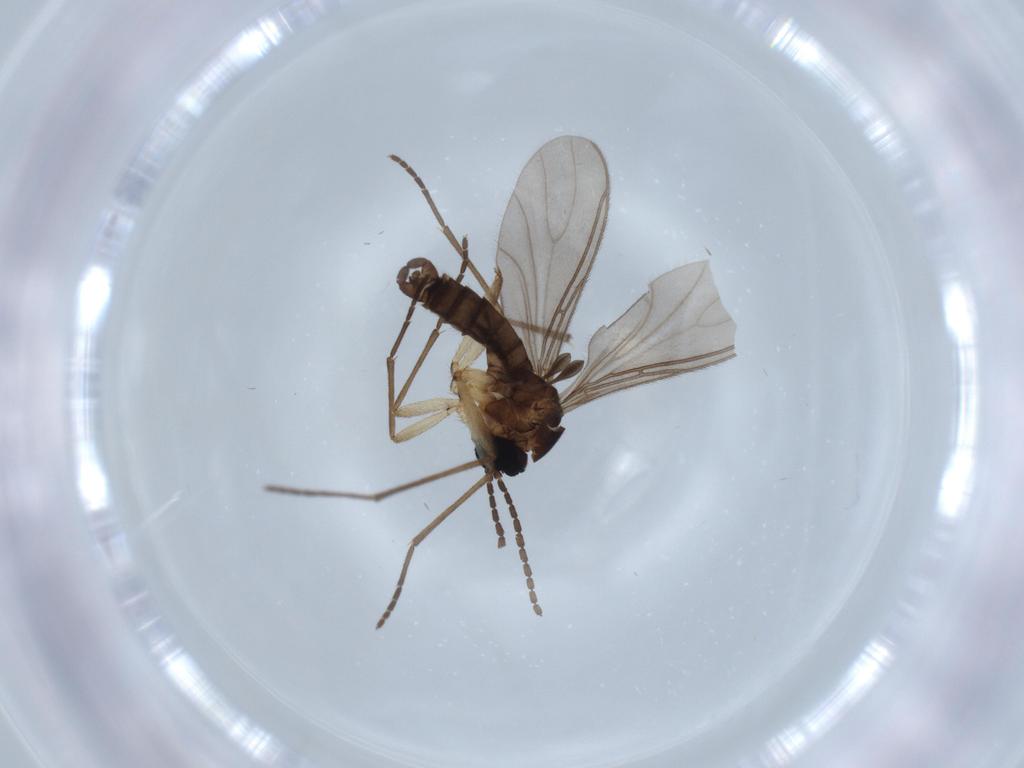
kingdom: Animalia
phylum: Arthropoda
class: Insecta
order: Diptera
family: Sciaridae
